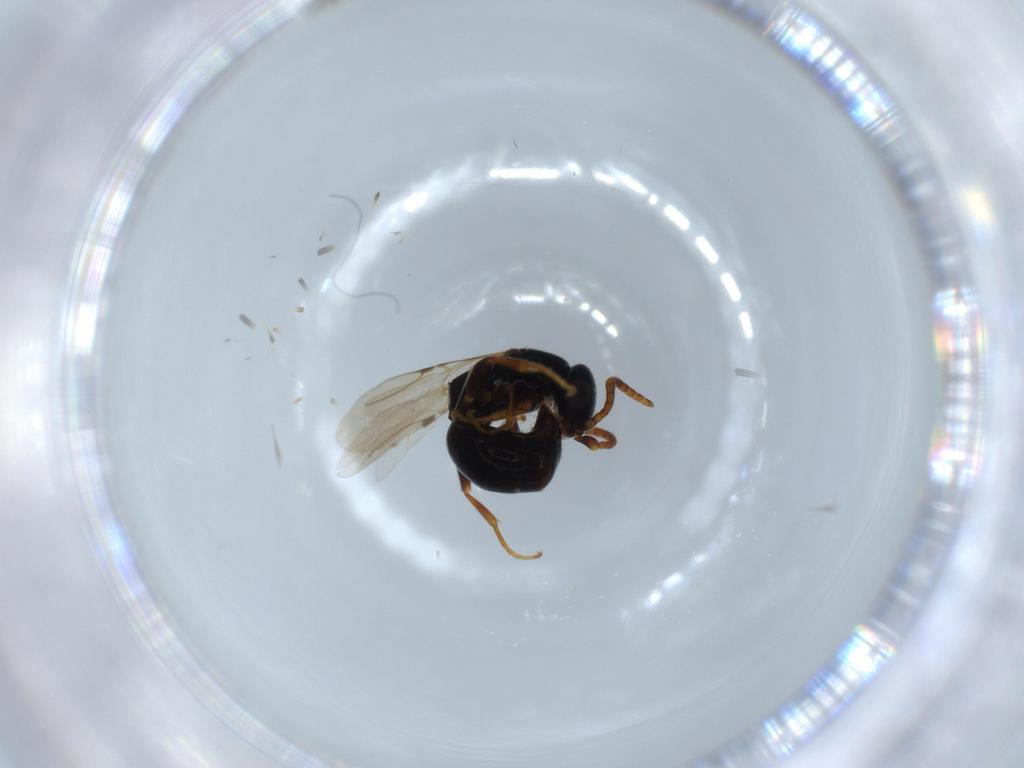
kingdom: Animalia
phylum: Arthropoda
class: Insecta
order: Hymenoptera
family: Bethylidae
